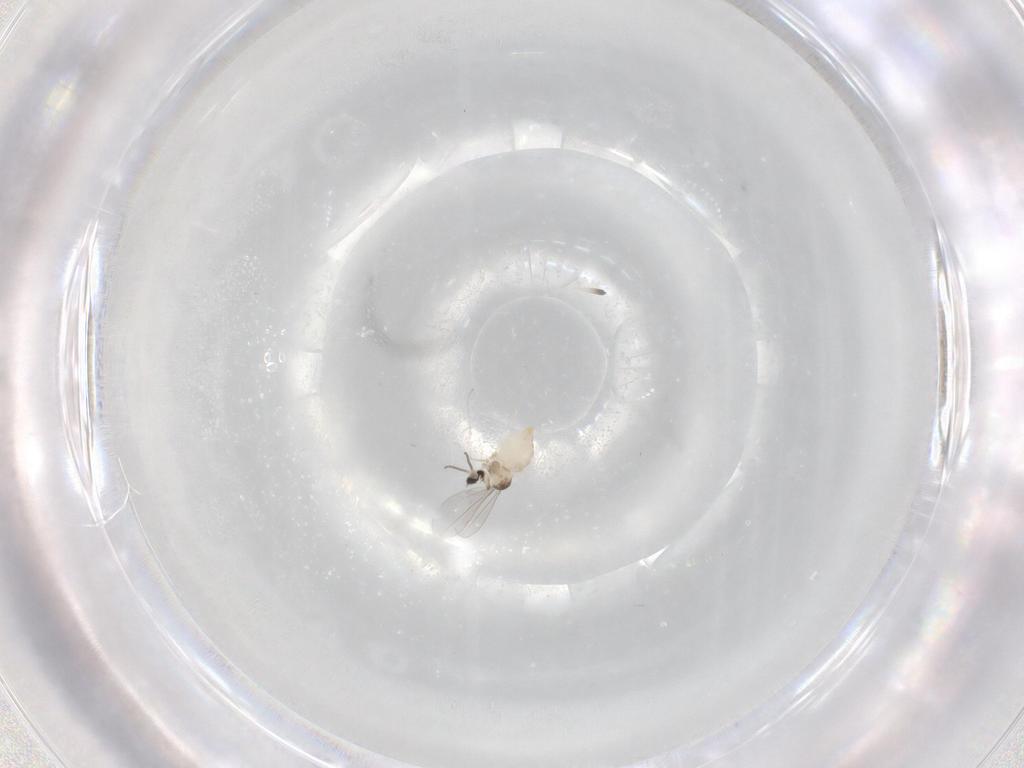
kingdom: Animalia
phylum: Arthropoda
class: Insecta
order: Diptera
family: Cecidomyiidae
